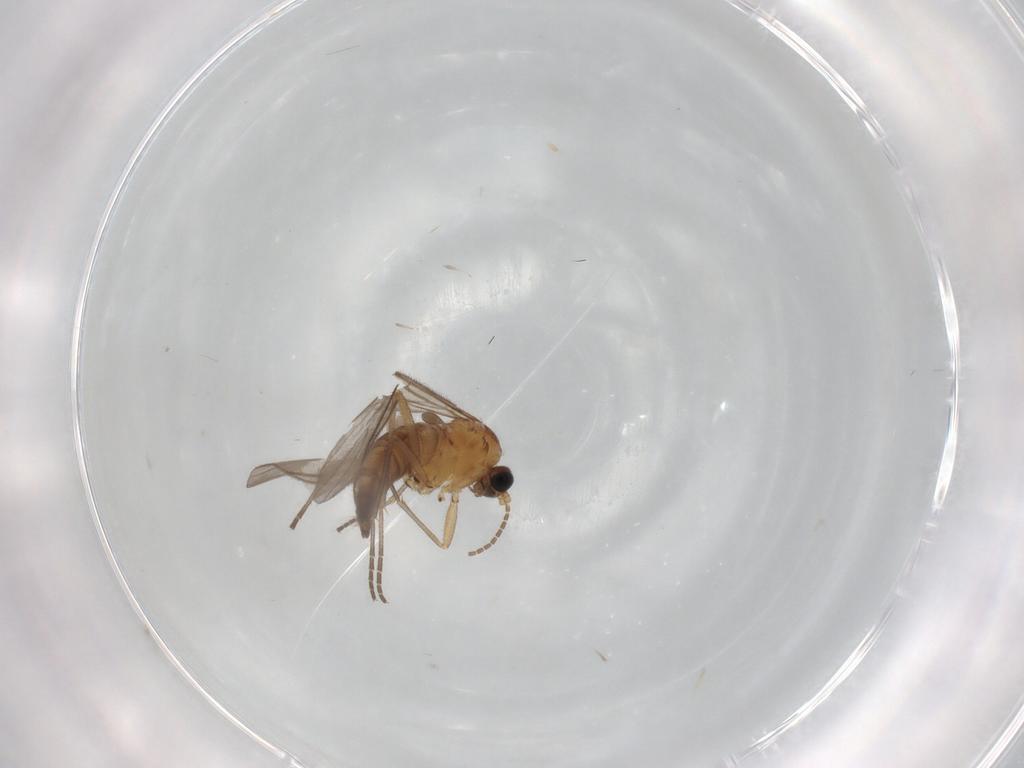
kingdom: Animalia
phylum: Arthropoda
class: Insecta
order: Diptera
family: Sciaridae
